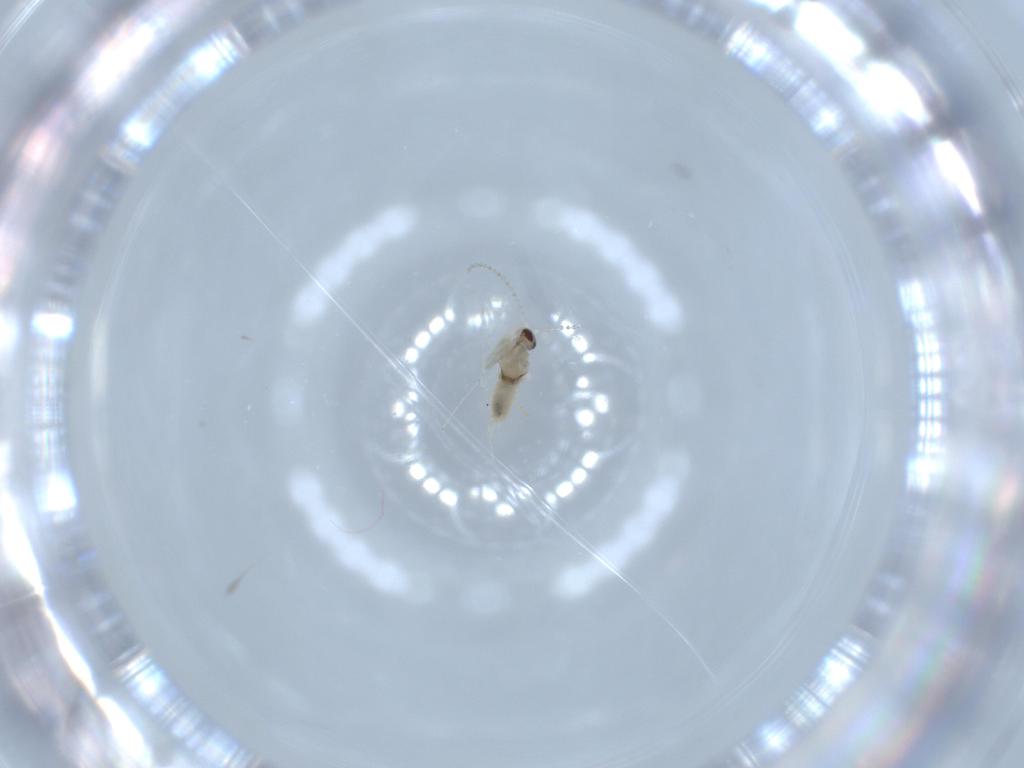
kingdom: Animalia
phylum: Arthropoda
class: Insecta
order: Diptera
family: Cecidomyiidae
